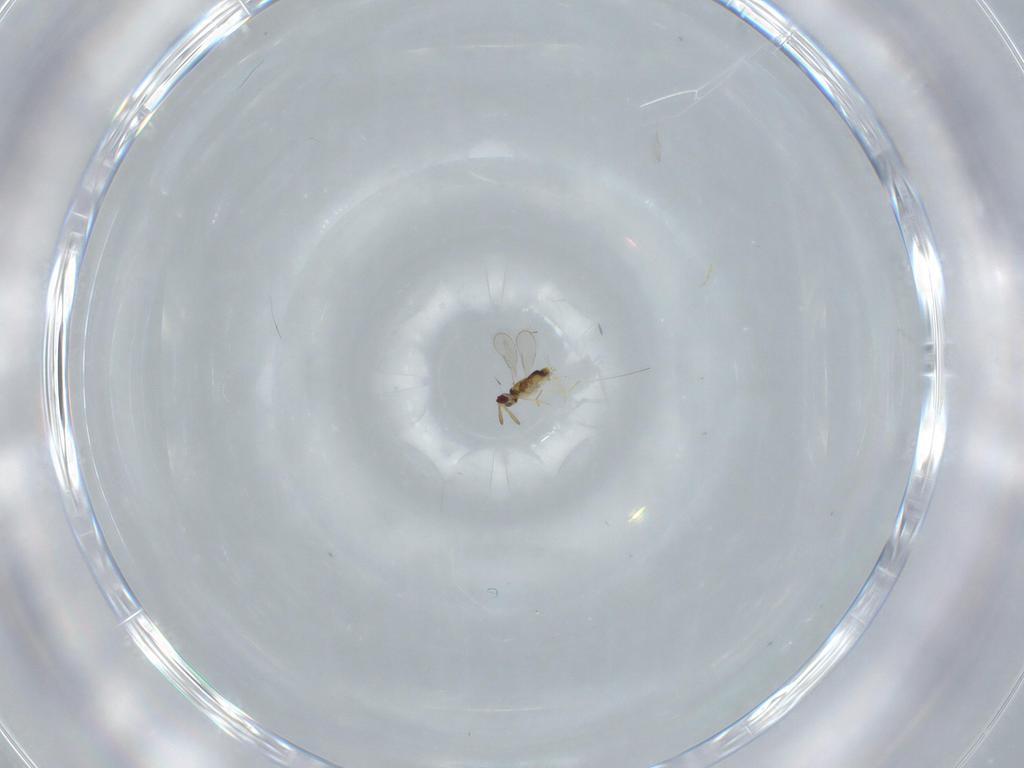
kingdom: Animalia
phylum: Arthropoda
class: Insecta
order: Hymenoptera
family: Aphelinidae
